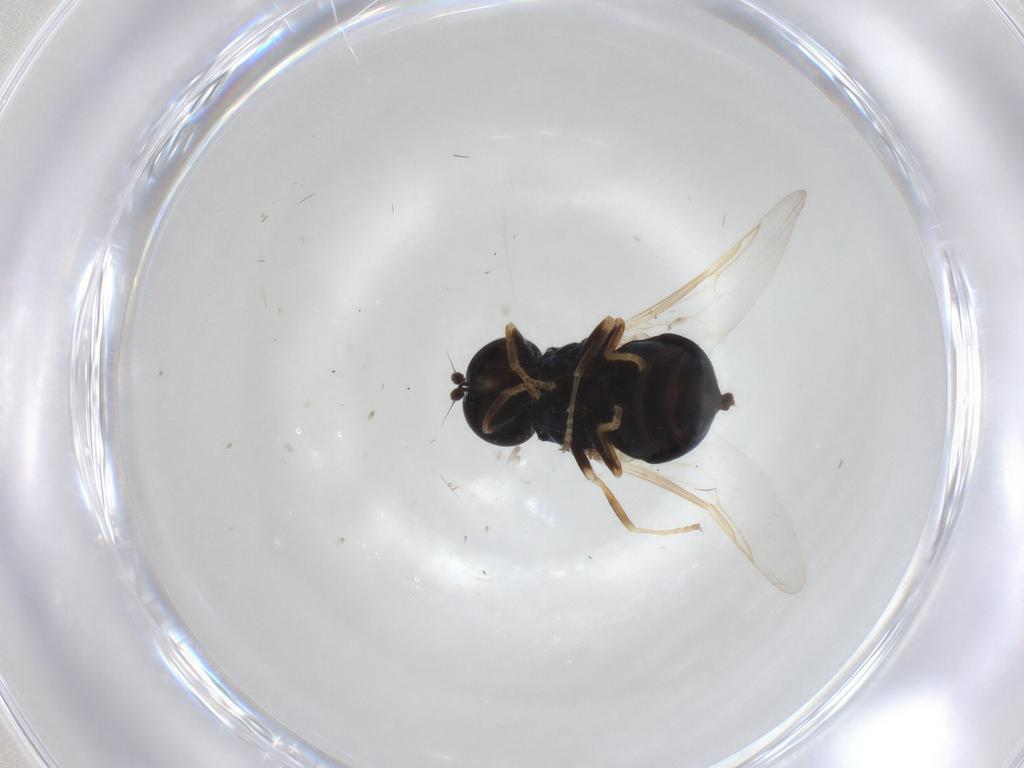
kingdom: Animalia
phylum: Arthropoda
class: Insecta
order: Diptera
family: Stratiomyidae
